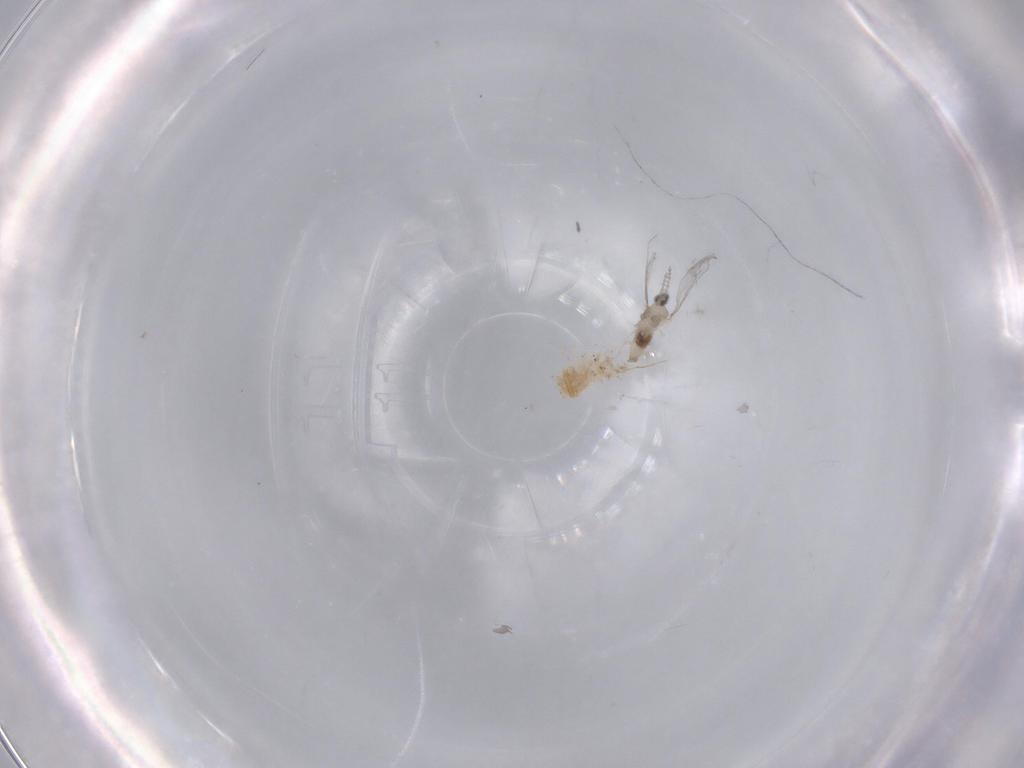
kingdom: Animalia
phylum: Arthropoda
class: Insecta
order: Diptera
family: Cecidomyiidae
